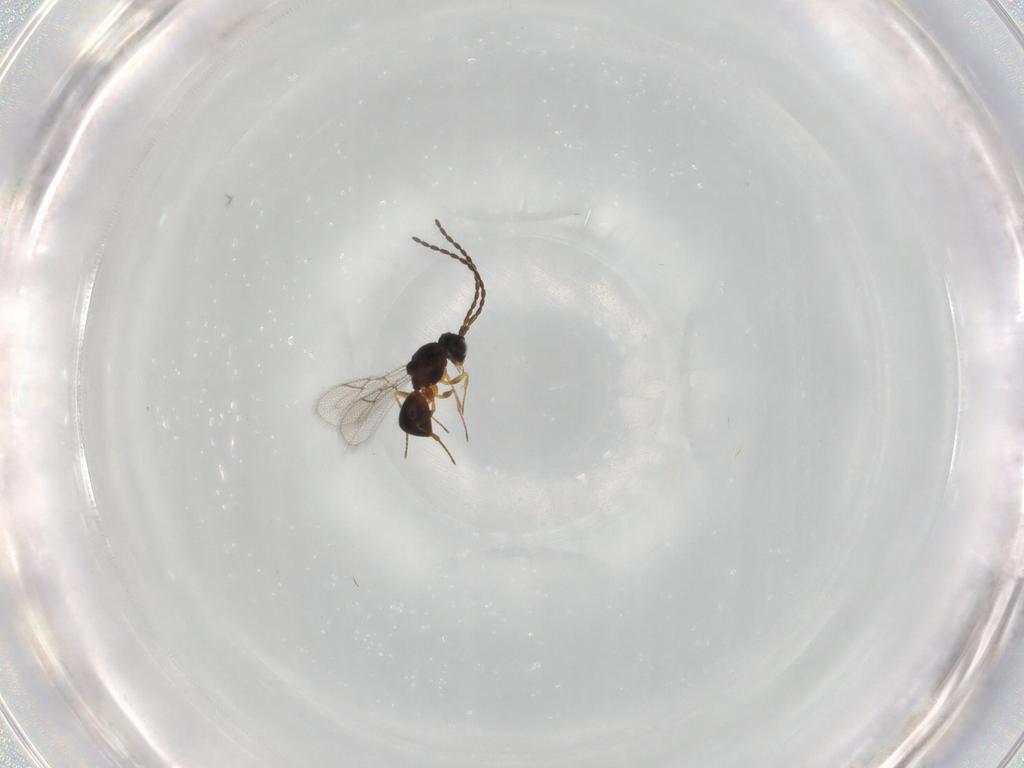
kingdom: Animalia
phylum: Arthropoda
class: Insecta
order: Hymenoptera
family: Figitidae
